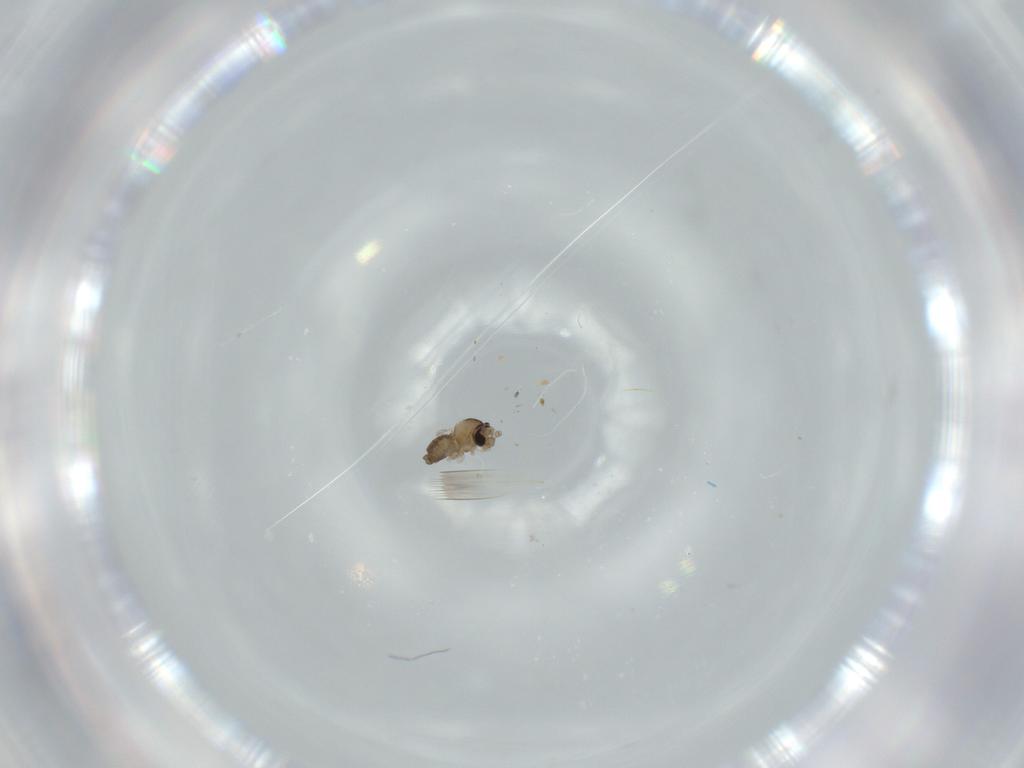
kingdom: Animalia
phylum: Arthropoda
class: Insecta
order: Diptera
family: Cecidomyiidae
